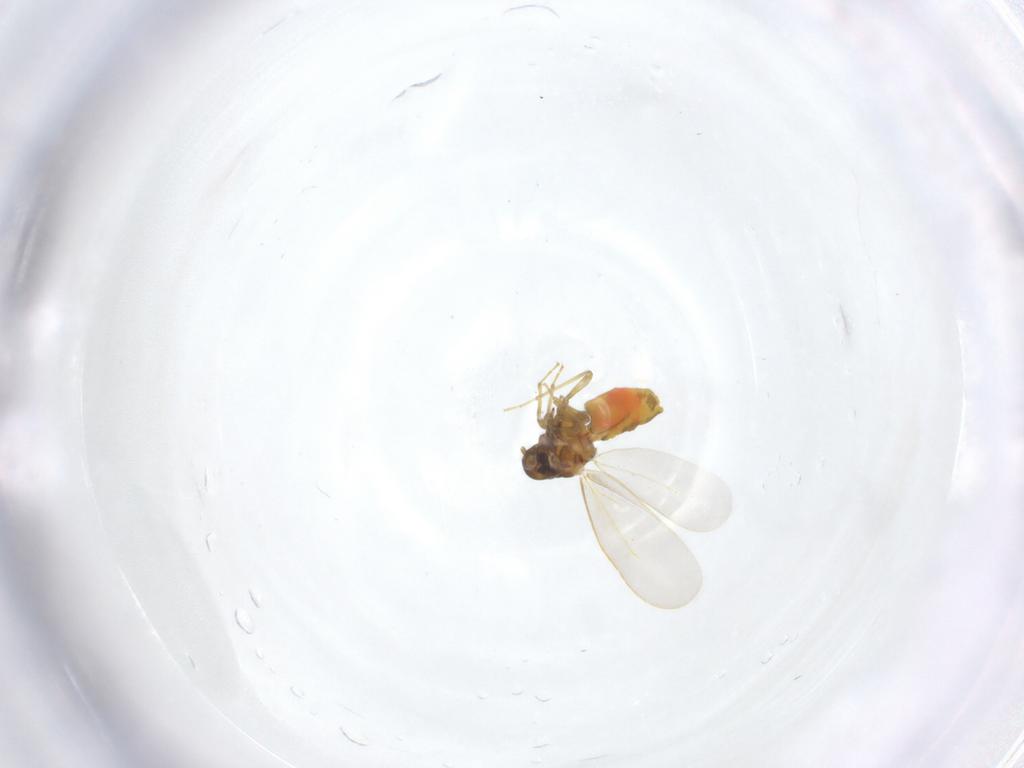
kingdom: Animalia
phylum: Arthropoda
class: Insecta
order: Hemiptera
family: Aleyrodidae
